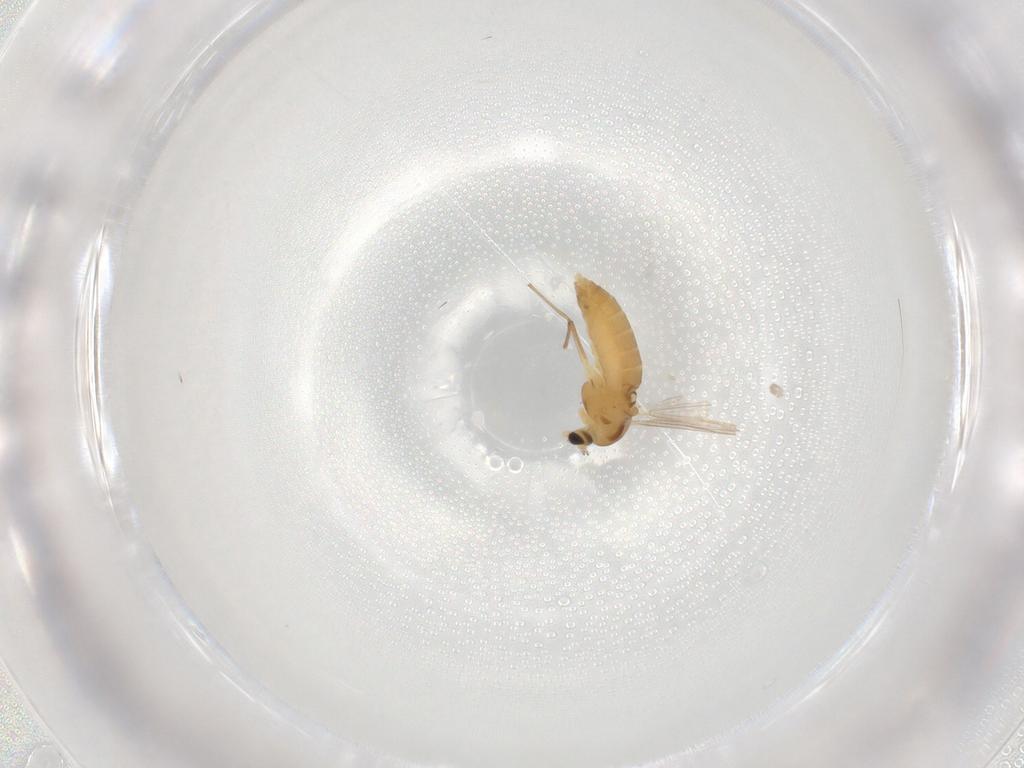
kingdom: Animalia
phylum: Arthropoda
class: Insecta
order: Diptera
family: Chironomidae
